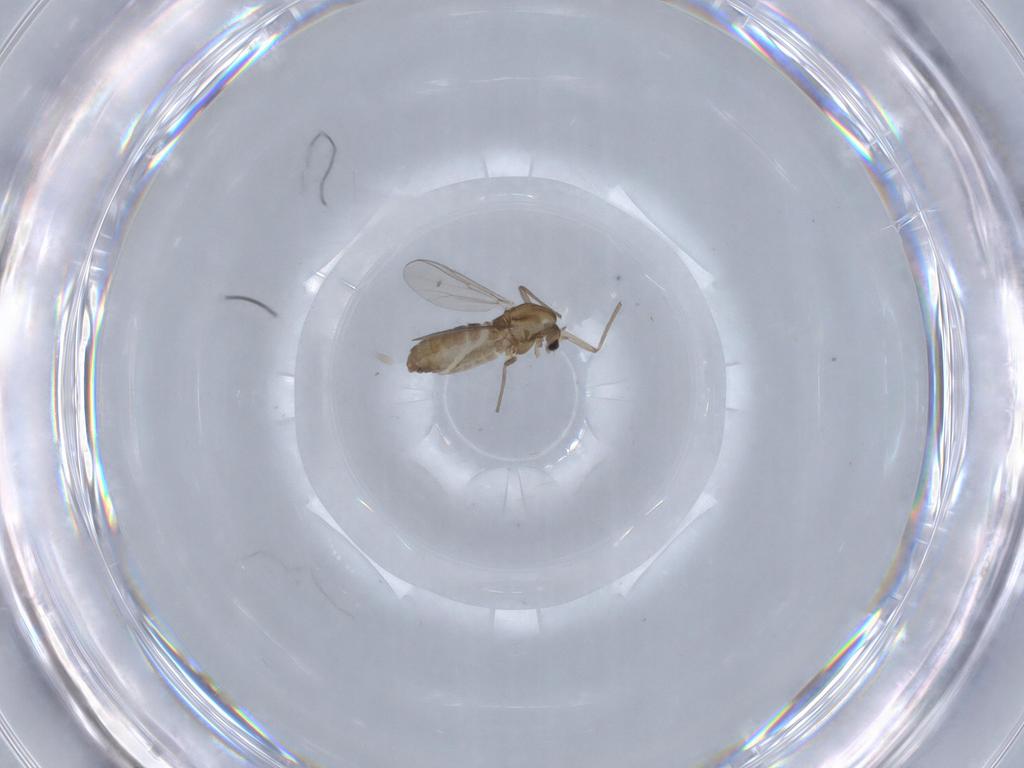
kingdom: Animalia
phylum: Arthropoda
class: Insecta
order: Diptera
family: Chironomidae
